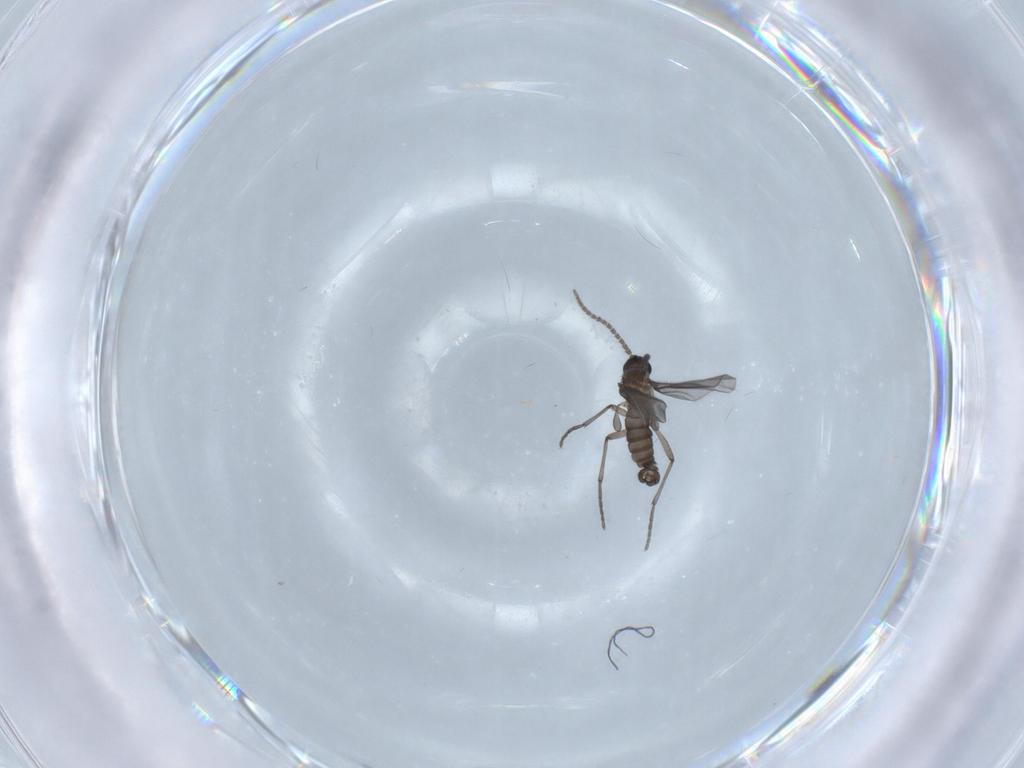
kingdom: Animalia
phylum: Arthropoda
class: Insecta
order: Diptera
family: Sciaridae
